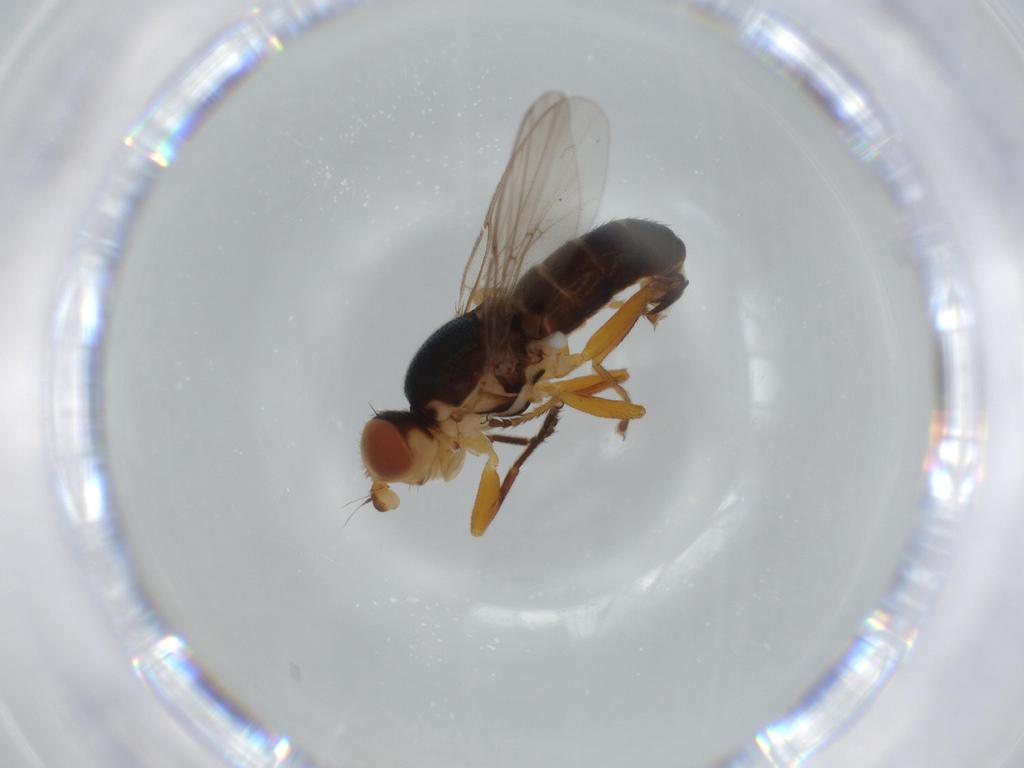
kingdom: Animalia
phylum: Arthropoda
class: Insecta
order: Diptera
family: Chloropidae
